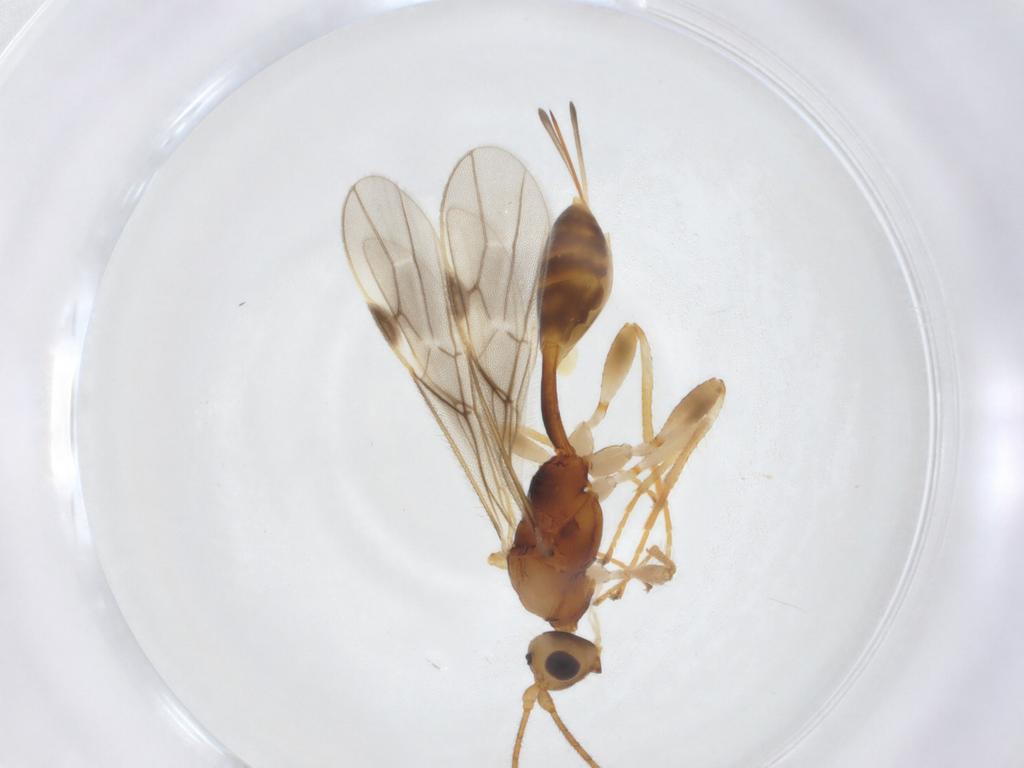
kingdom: Animalia
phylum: Arthropoda
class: Insecta
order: Hymenoptera
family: Braconidae
